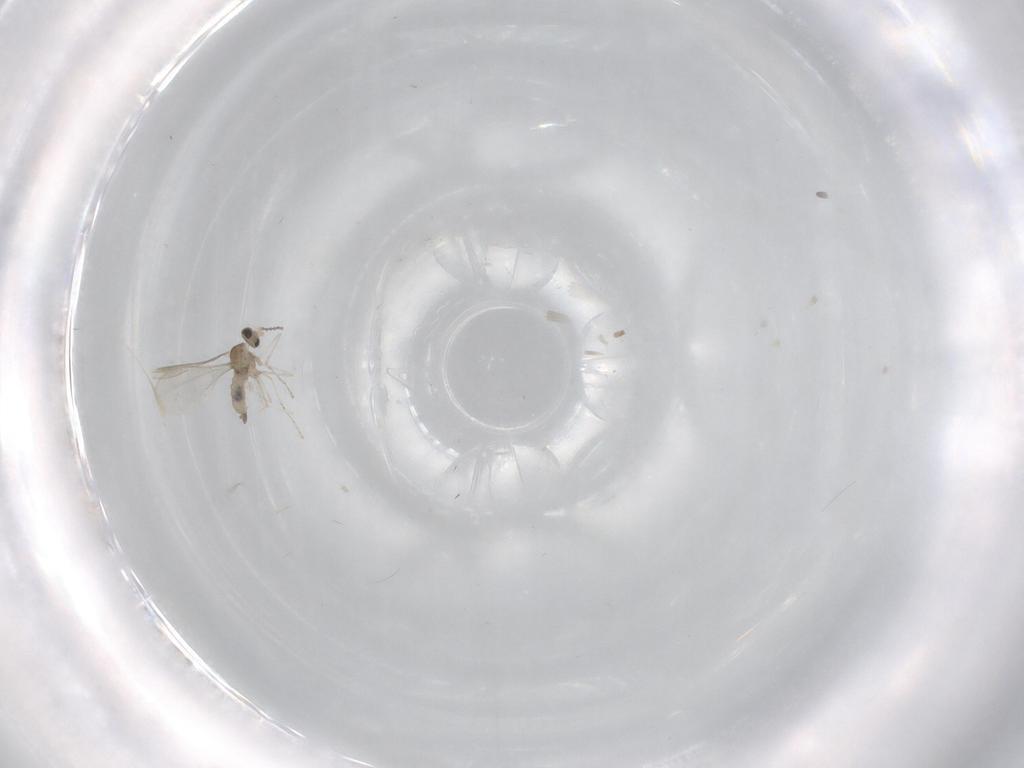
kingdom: Animalia
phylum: Arthropoda
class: Insecta
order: Diptera
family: Cecidomyiidae
